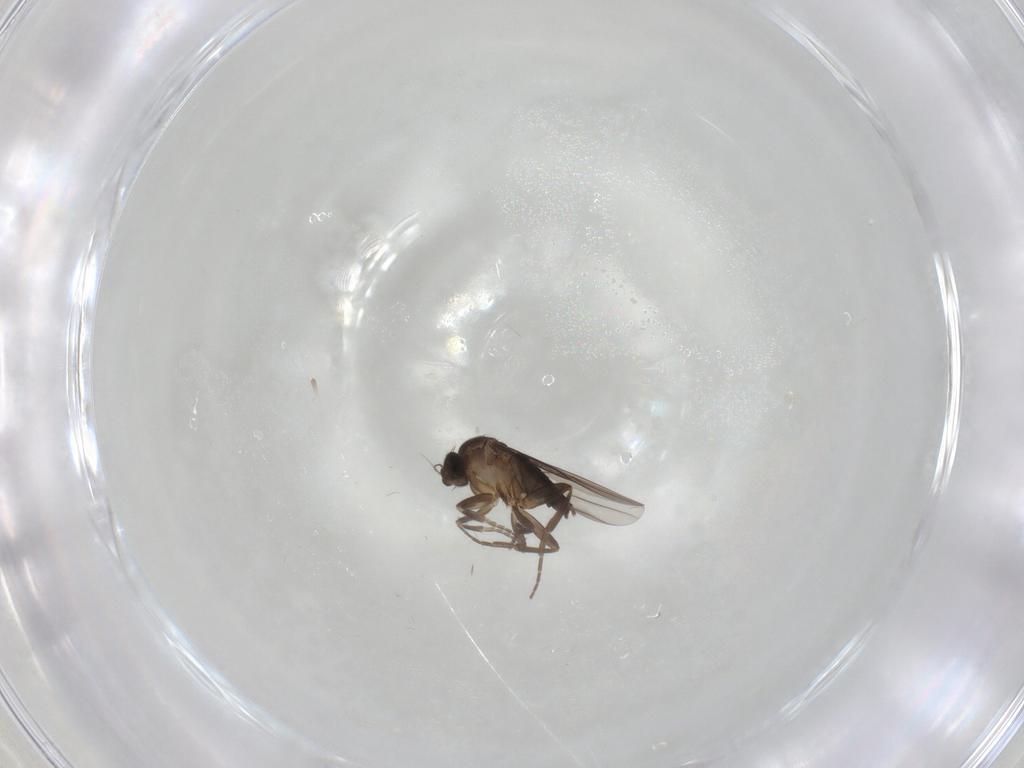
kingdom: Animalia
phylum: Arthropoda
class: Insecta
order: Diptera
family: Phoridae
